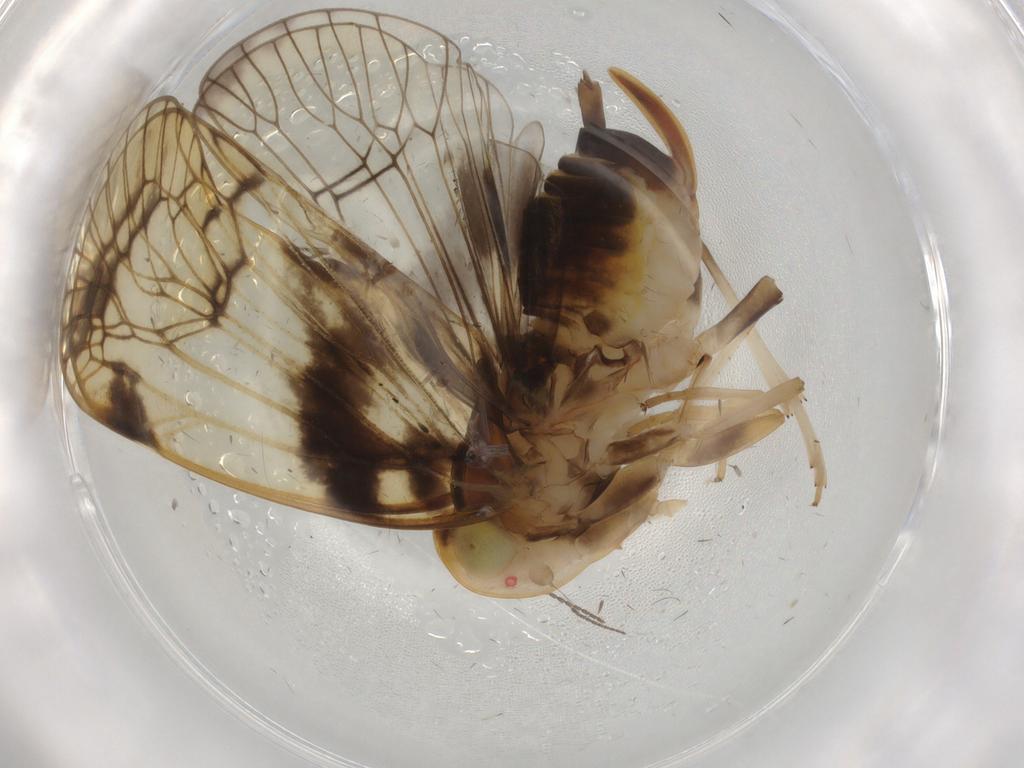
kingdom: Animalia
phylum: Arthropoda
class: Insecta
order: Hemiptera
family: Cixiidae
